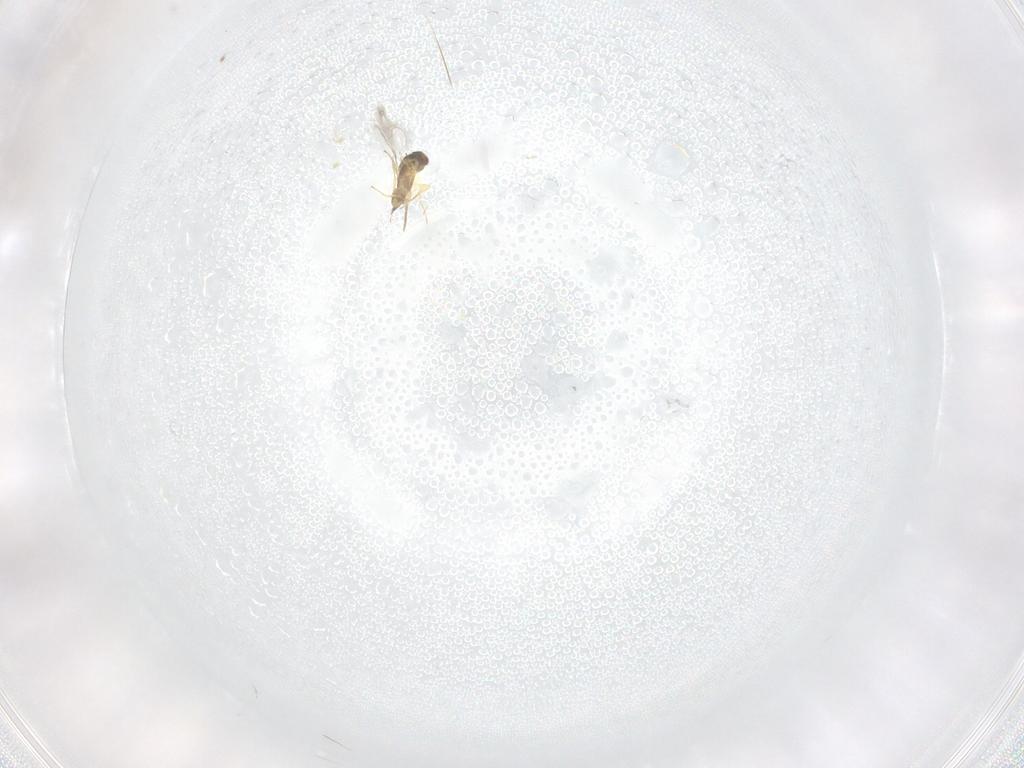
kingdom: Animalia
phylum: Arthropoda
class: Insecta
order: Hymenoptera
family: Mymaridae
